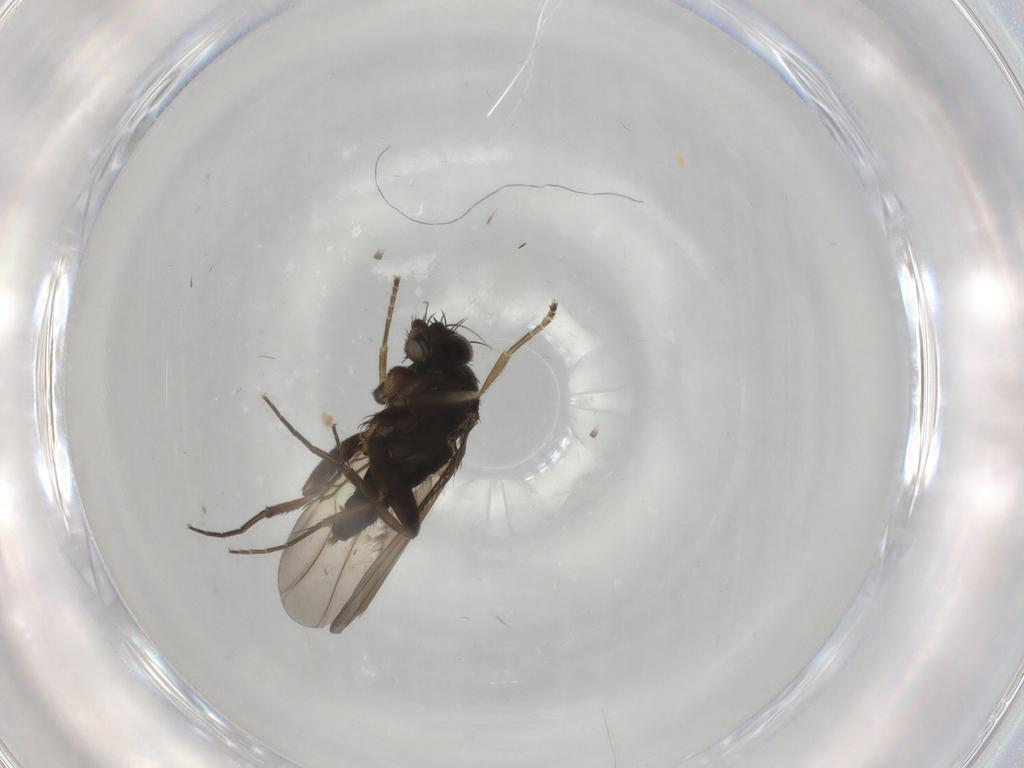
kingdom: Animalia
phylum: Arthropoda
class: Insecta
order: Diptera
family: Phoridae
